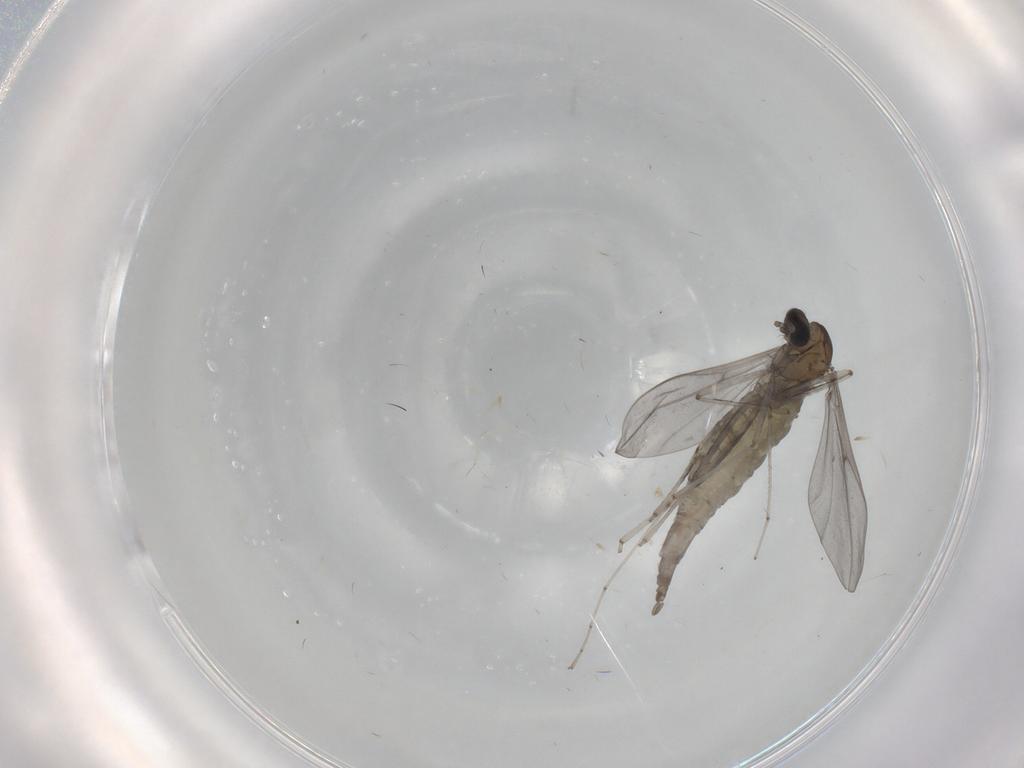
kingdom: Animalia
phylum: Arthropoda
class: Insecta
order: Diptera
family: Cecidomyiidae
